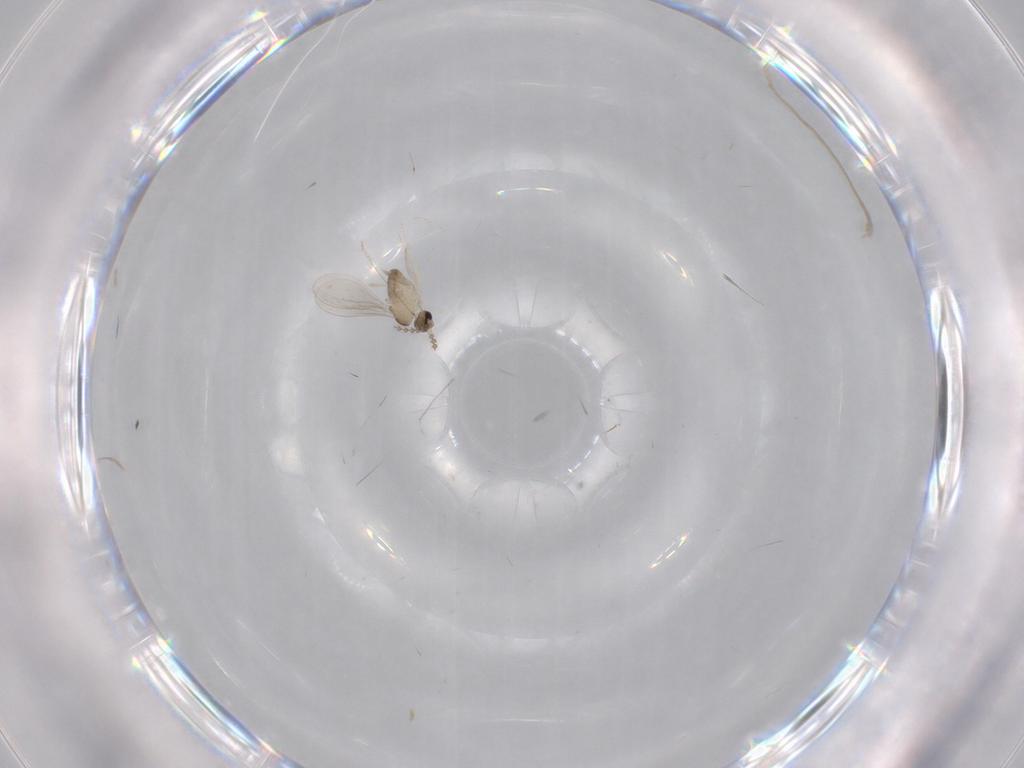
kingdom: Animalia
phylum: Arthropoda
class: Insecta
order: Diptera
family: Cecidomyiidae
